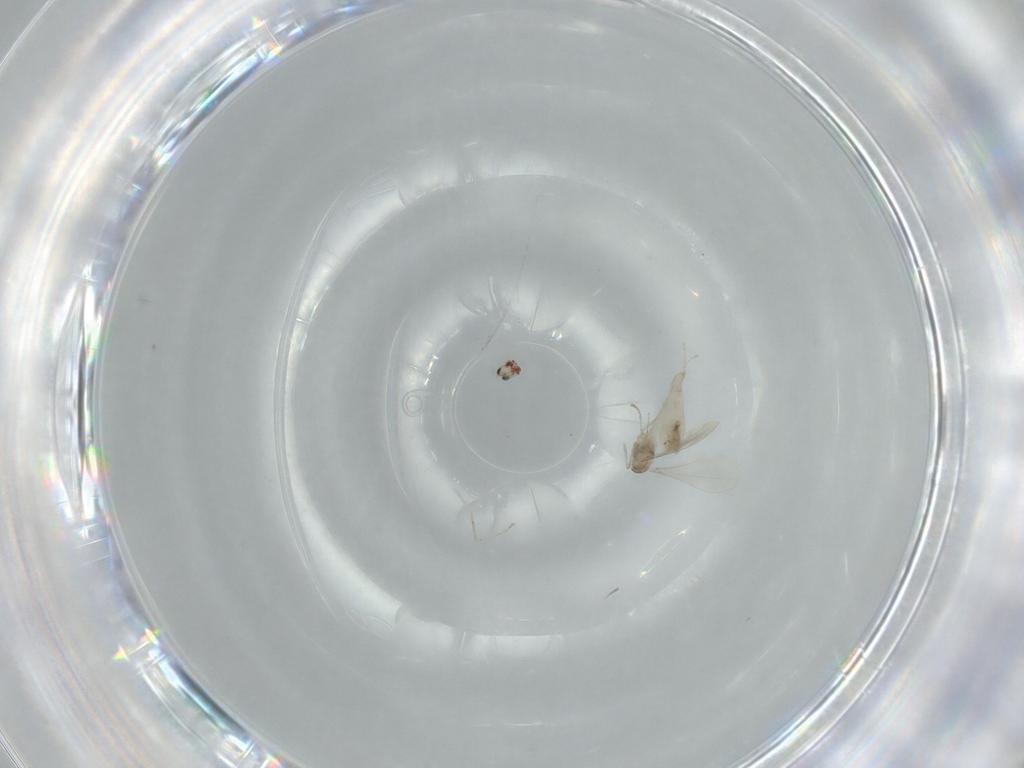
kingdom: Animalia
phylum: Arthropoda
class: Insecta
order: Diptera
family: Cecidomyiidae
